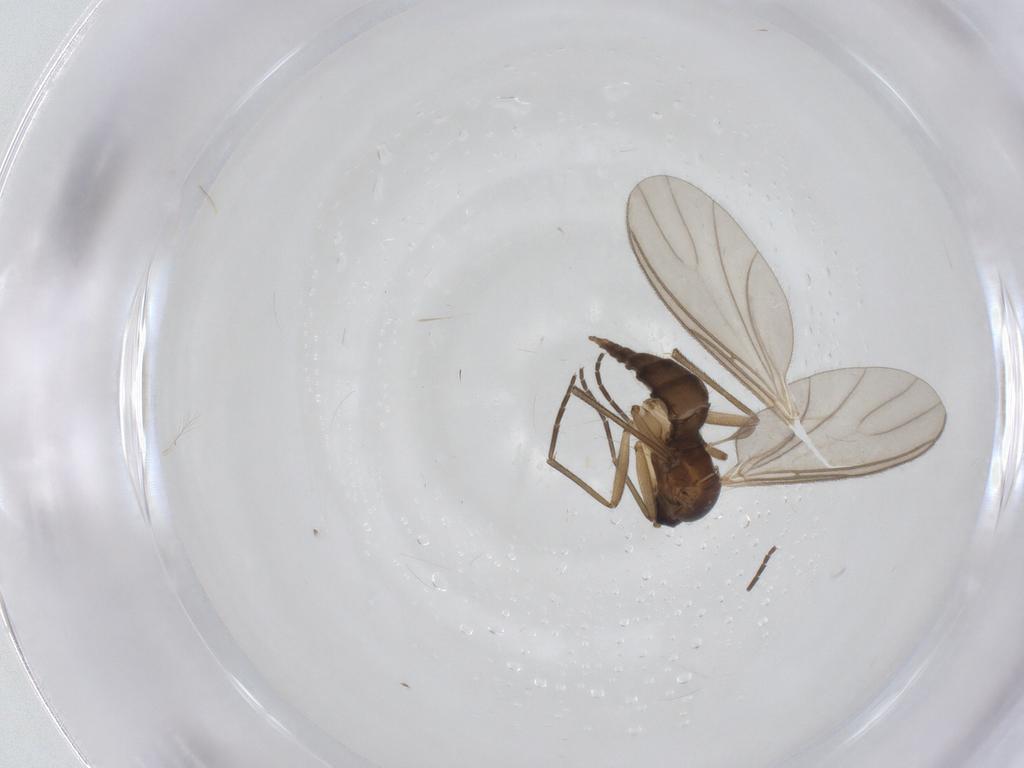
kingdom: Animalia
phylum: Arthropoda
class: Insecta
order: Diptera
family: Sciaridae
